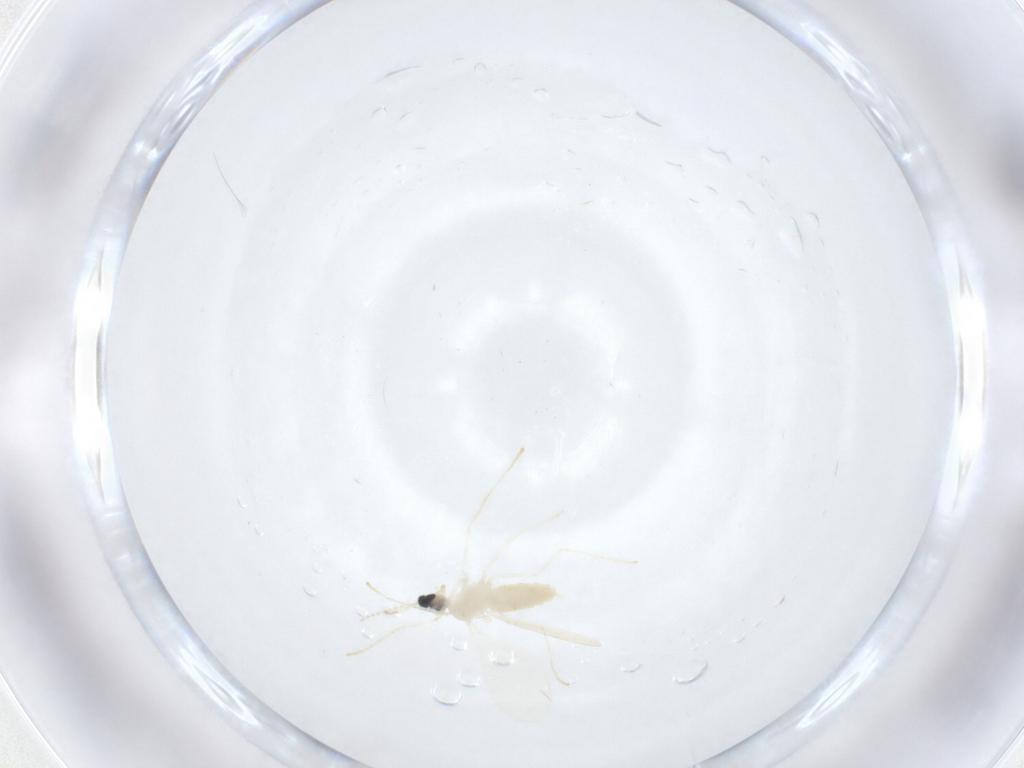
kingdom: Animalia
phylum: Arthropoda
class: Insecta
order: Diptera
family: Cecidomyiidae
